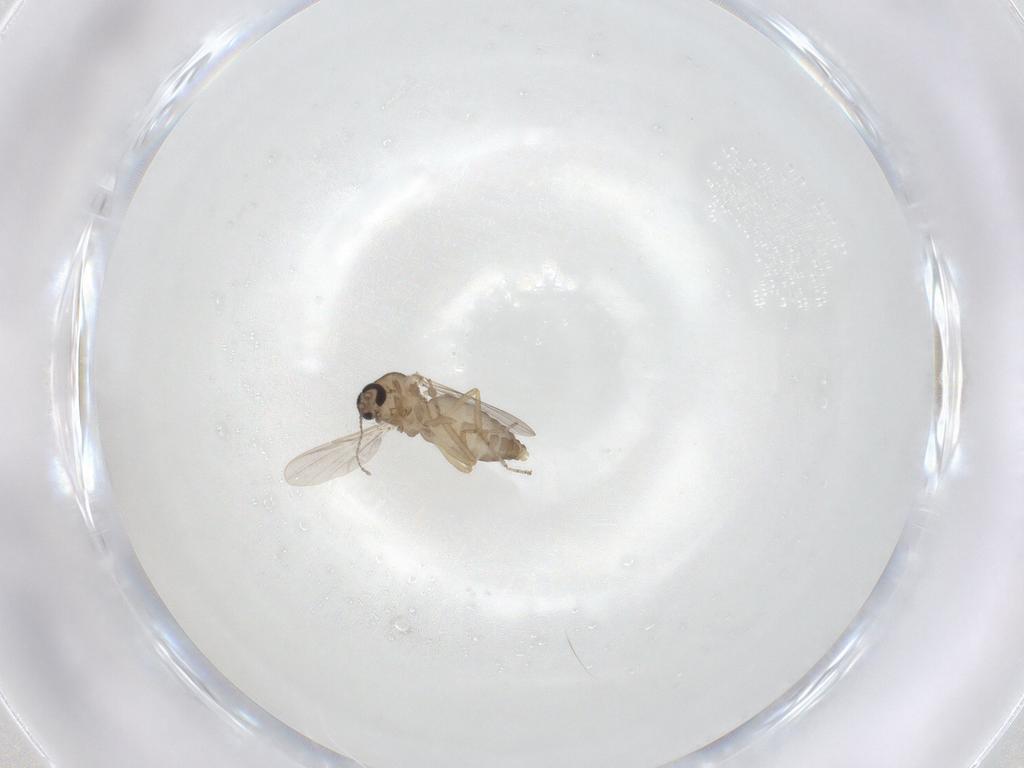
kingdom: Animalia
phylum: Arthropoda
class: Insecta
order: Diptera
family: Ceratopogonidae
